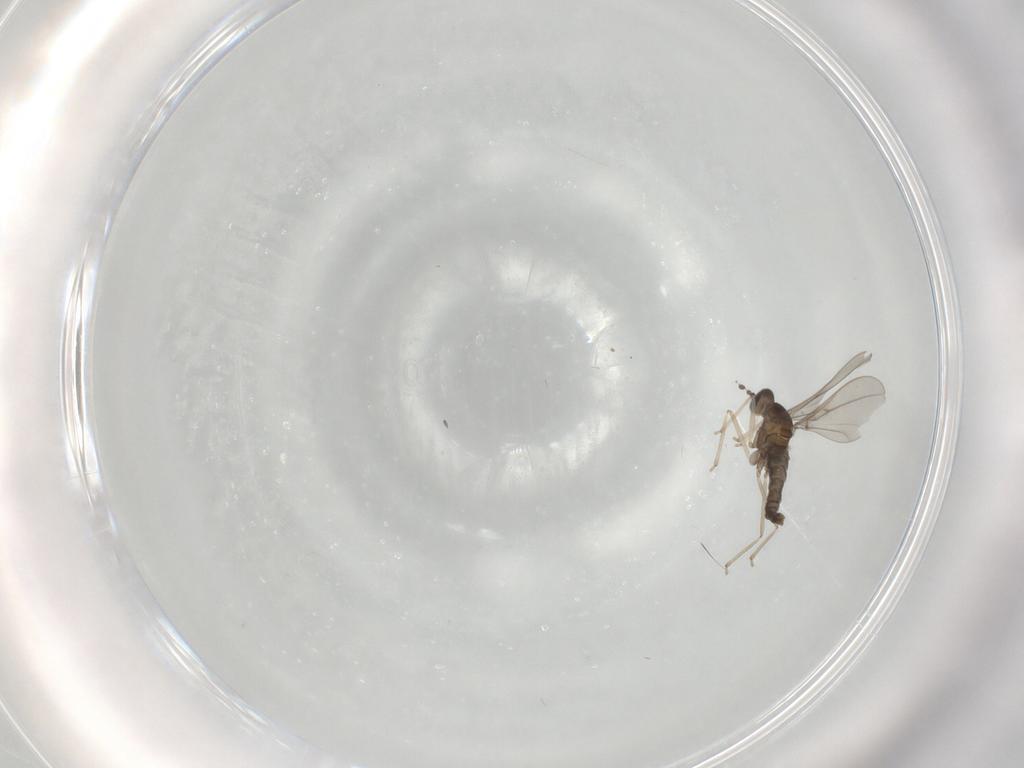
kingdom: Animalia
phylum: Arthropoda
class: Insecta
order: Diptera
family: Cecidomyiidae
